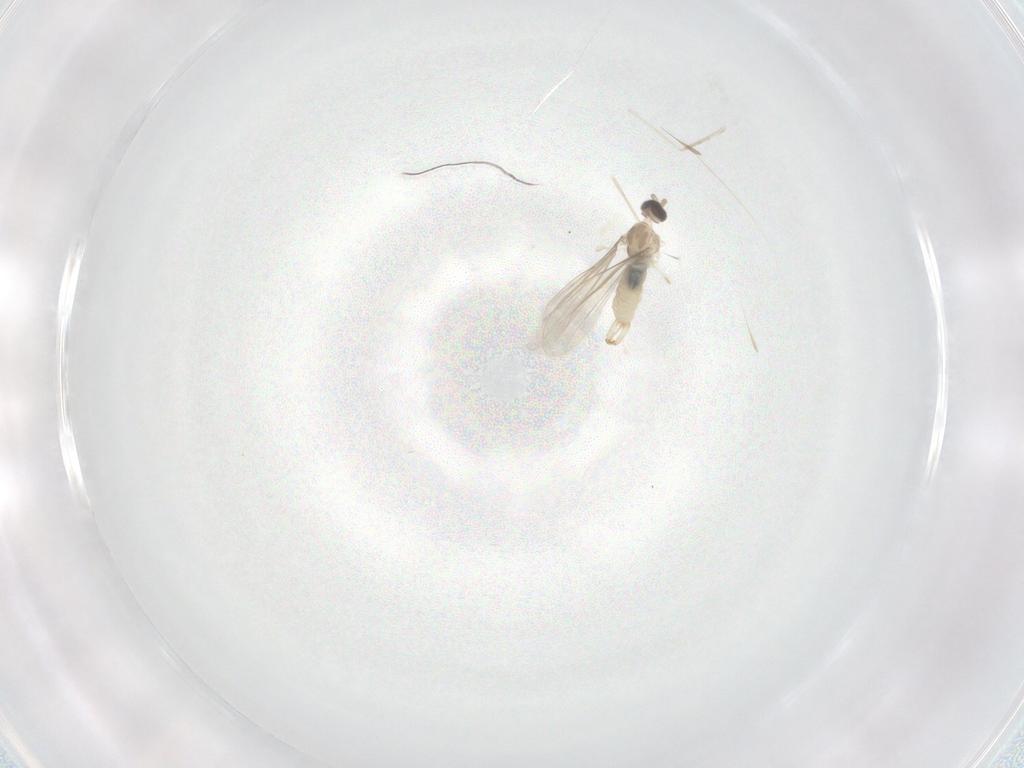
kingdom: Animalia
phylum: Arthropoda
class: Insecta
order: Diptera
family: Cecidomyiidae
